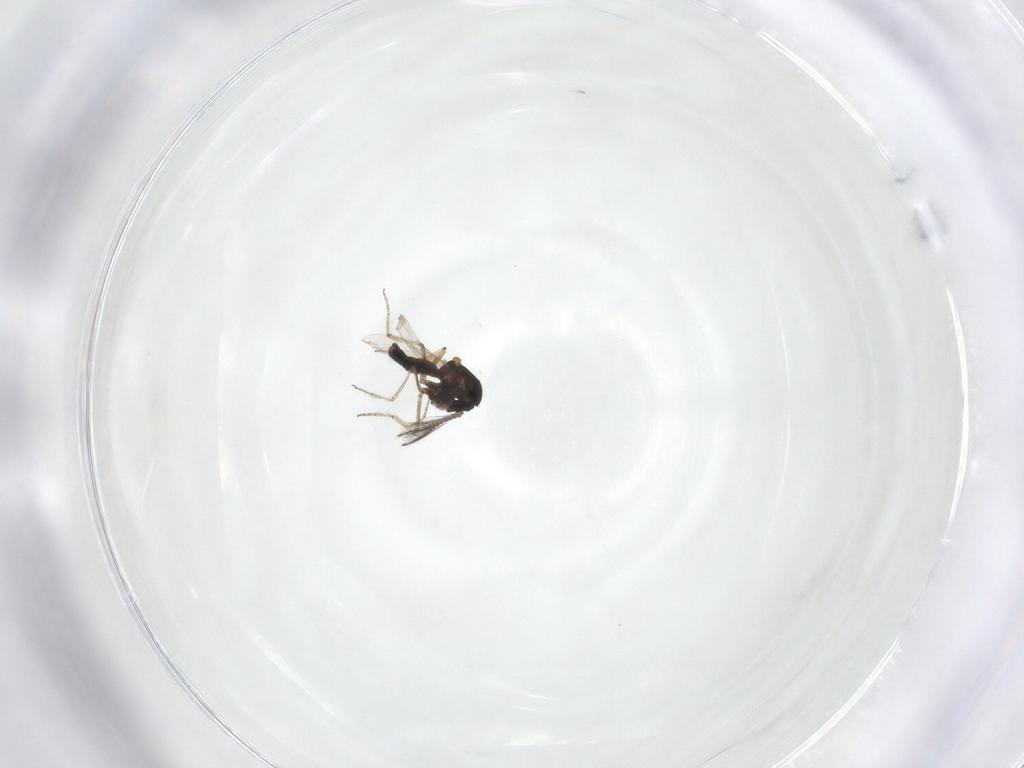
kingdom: Animalia
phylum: Arthropoda
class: Insecta
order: Diptera
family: Ceratopogonidae
